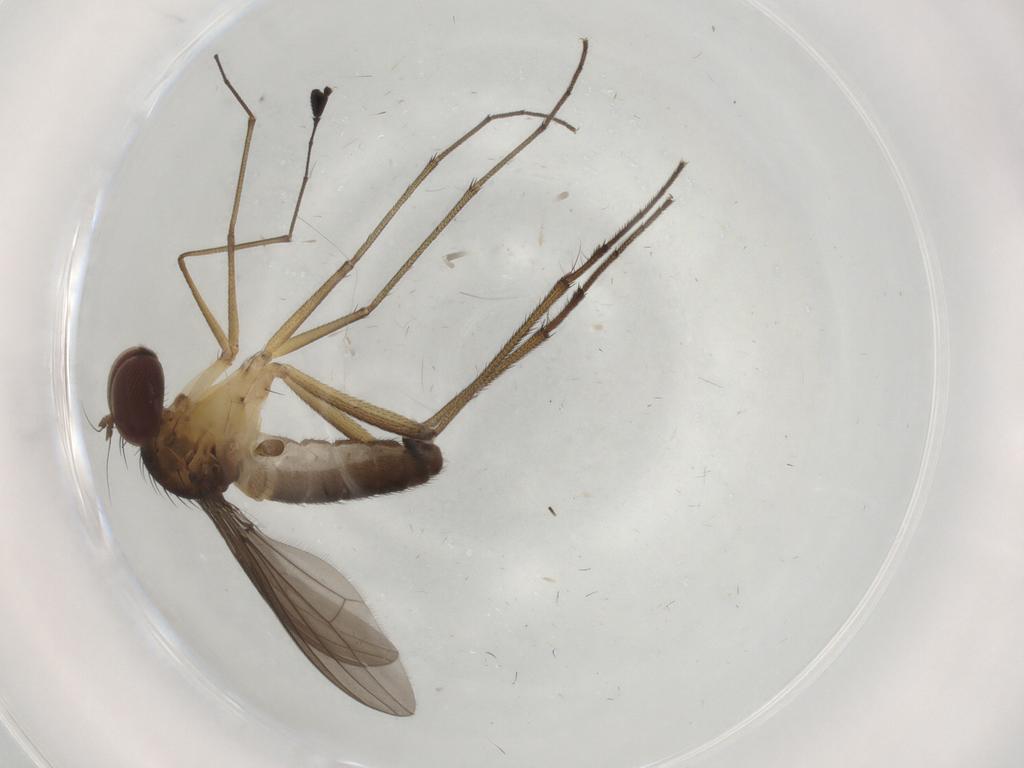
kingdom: Animalia
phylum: Arthropoda
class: Insecta
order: Diptera
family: Dolichopodidae
